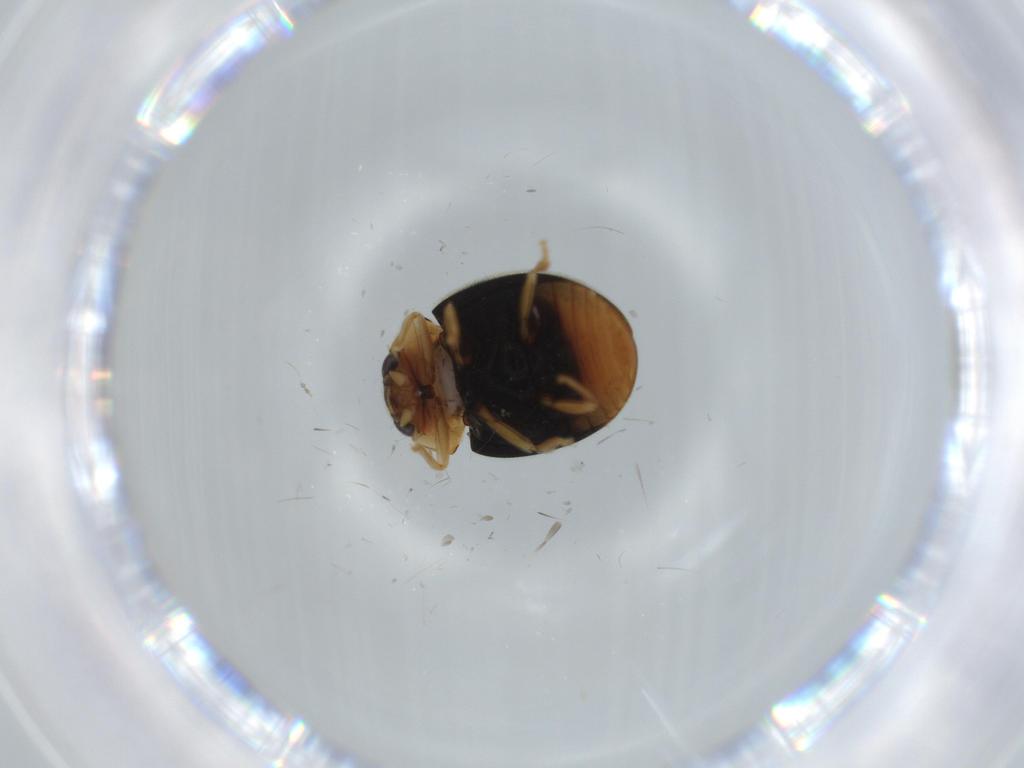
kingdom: Animalia
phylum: Arthropoda
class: Insecta
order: Coleoptera
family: Coccinellidae
